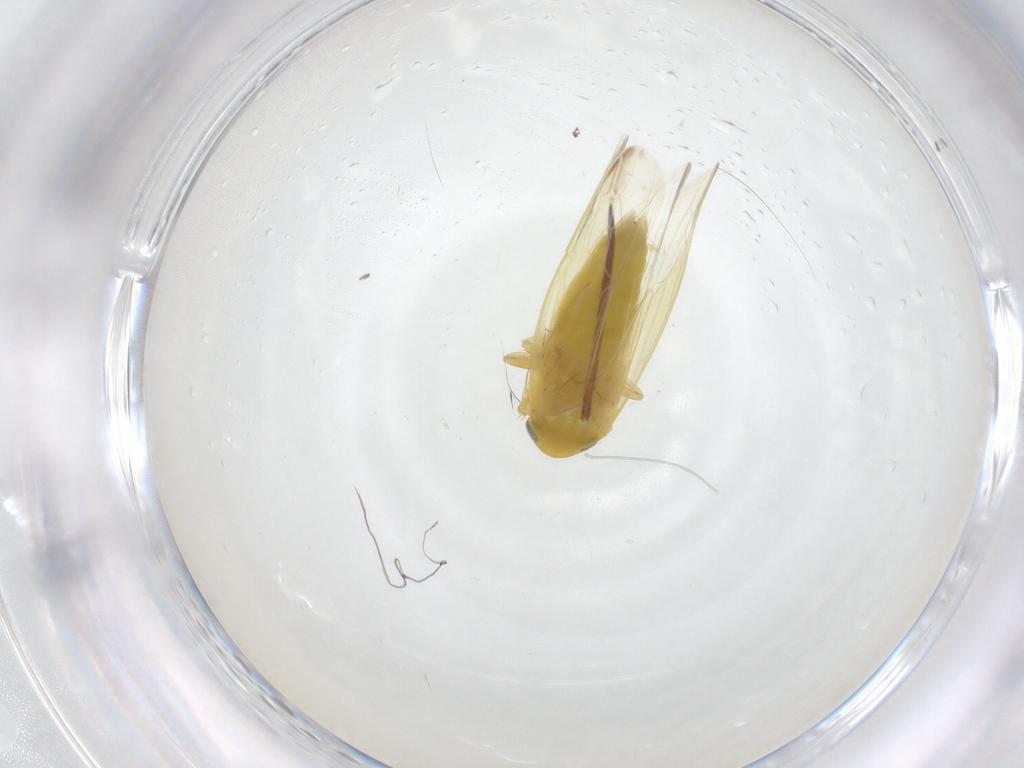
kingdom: Animalia
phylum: Arthropoda
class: Insecta
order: Hemiptera
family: Cicadellidae
